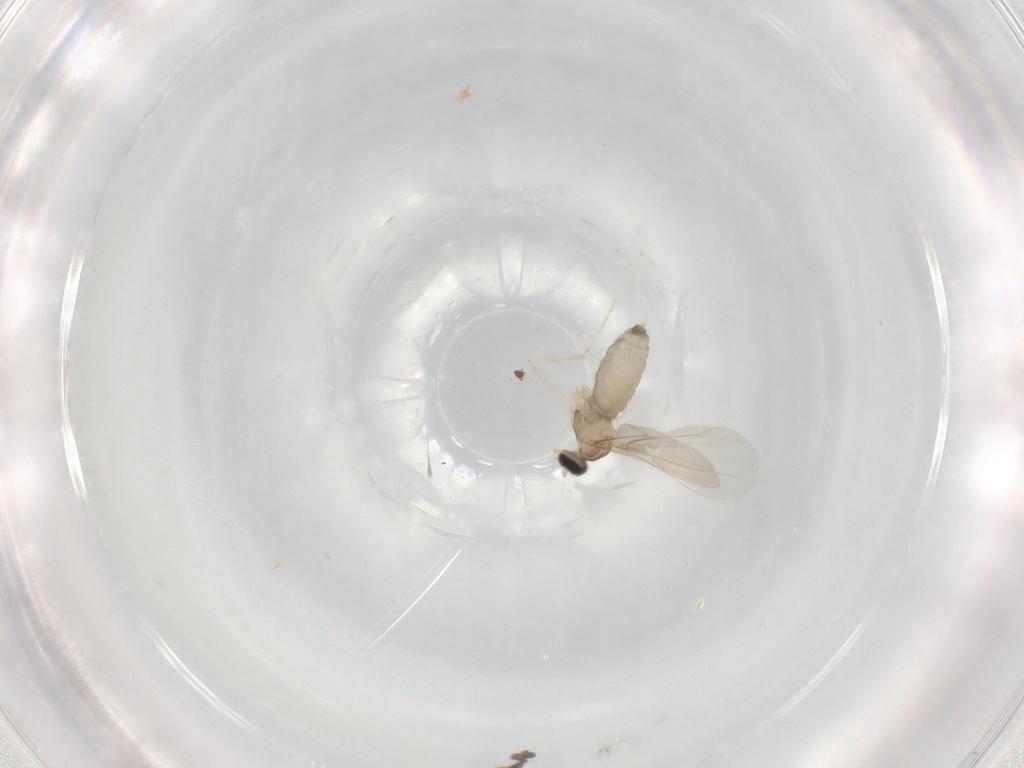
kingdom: Animalia
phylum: Arthropoda
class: Insecta
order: Diptera
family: Cecidomyiidae
